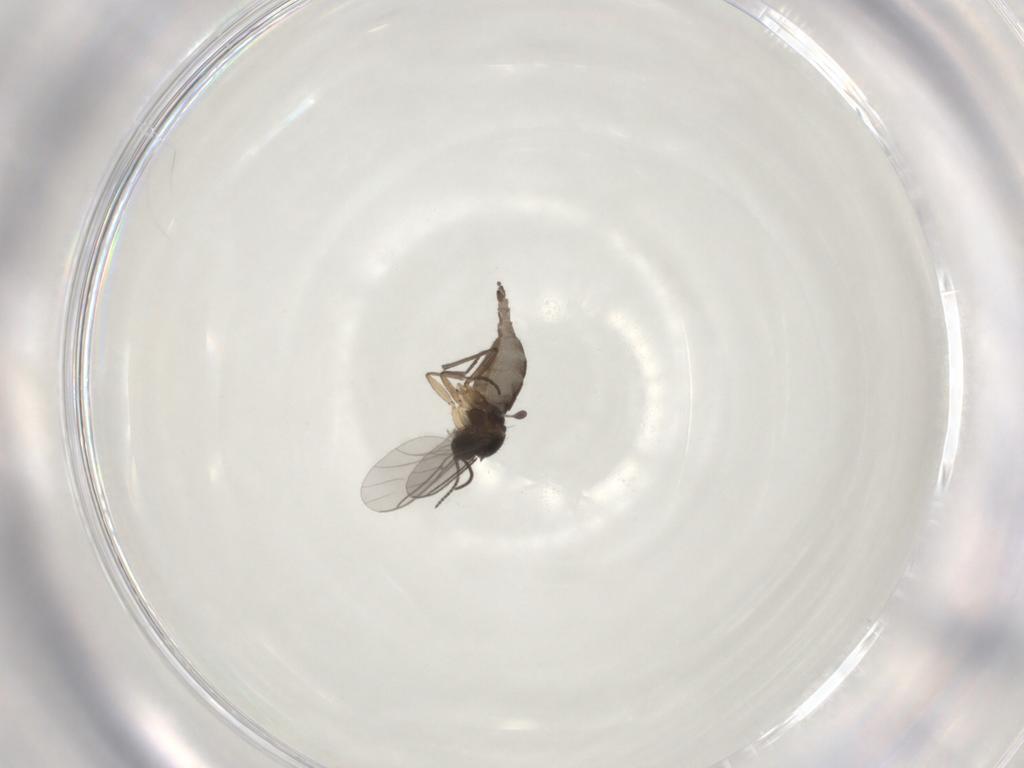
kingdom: Animalia
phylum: Arthropoda
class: Insecta
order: Diptera
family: Sciaridae
